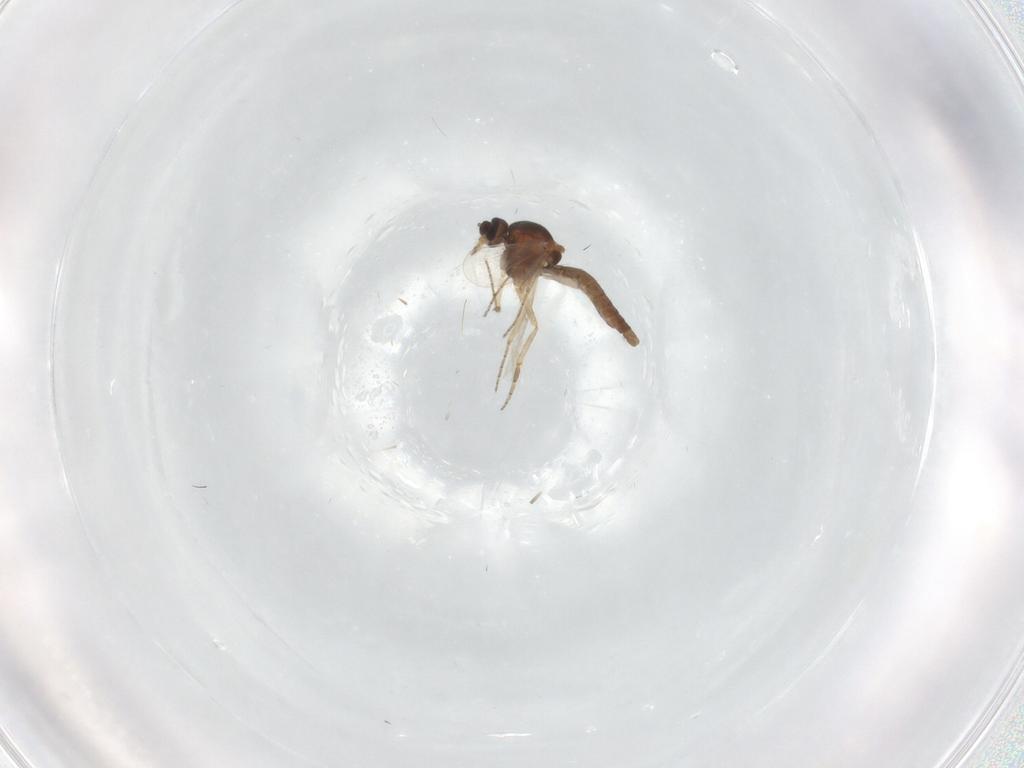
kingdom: Animalia
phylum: Arthropoda
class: Insecta
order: Diptera
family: Ceratopogonidae
